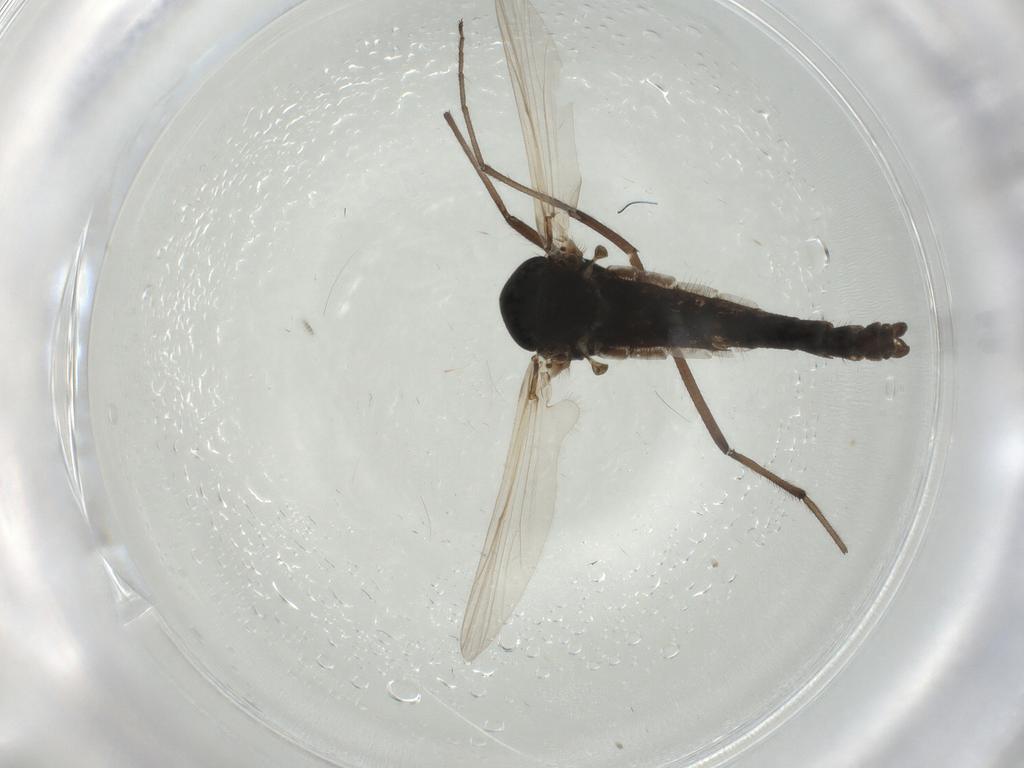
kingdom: Animalia
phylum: Arthropoda
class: Insecta
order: Diptera
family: Chironomidae
